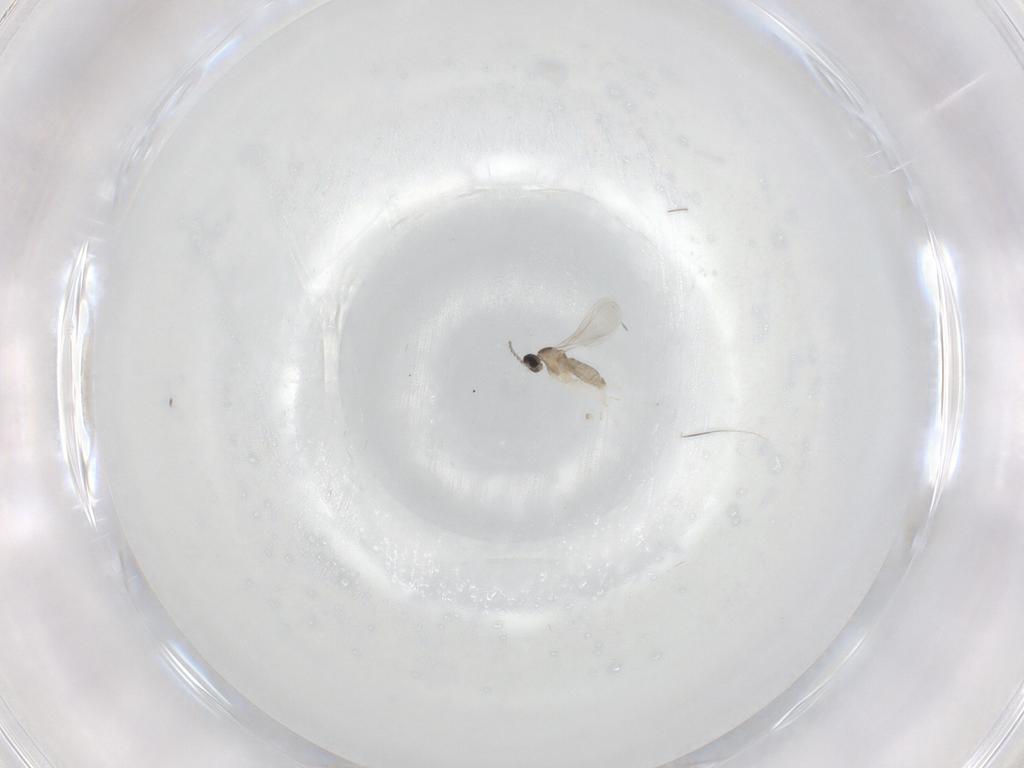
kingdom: Animalia
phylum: Arthropoda
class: Insecta
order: Diptera
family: Cecidomyiidae
